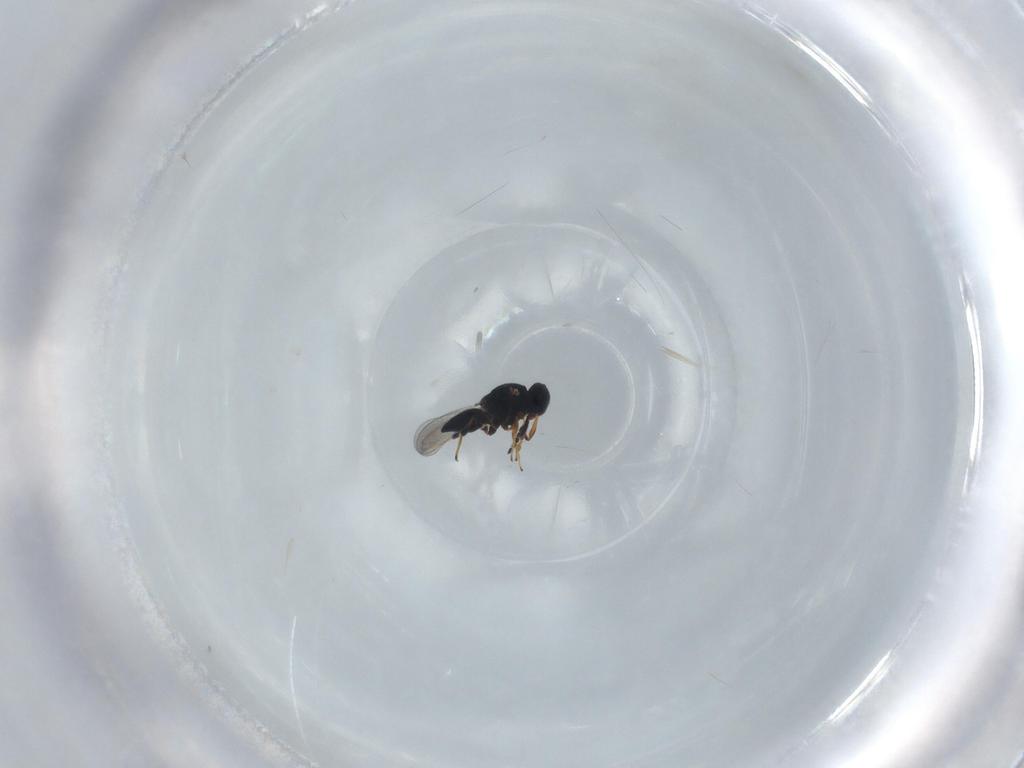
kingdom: Animalia
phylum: Arthropoda
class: Insecta
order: Hymenoptera
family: Platygastridae
